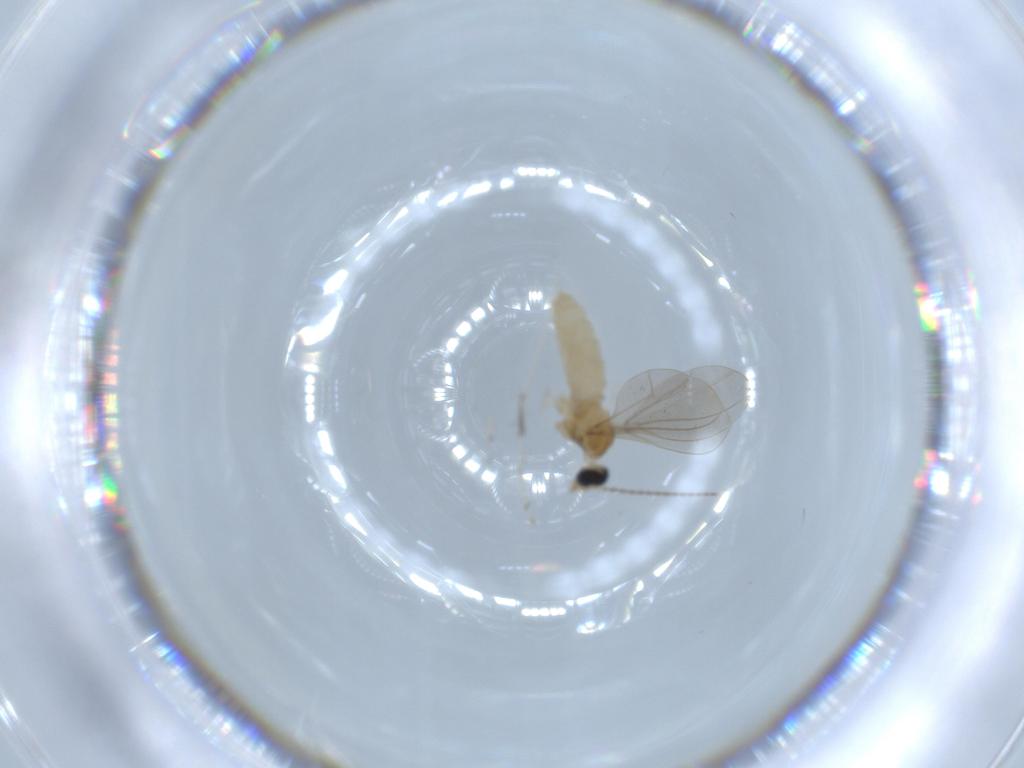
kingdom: Animalia
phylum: Arthropoda
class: Insecta
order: Diptera
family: Cecidomyiidae
